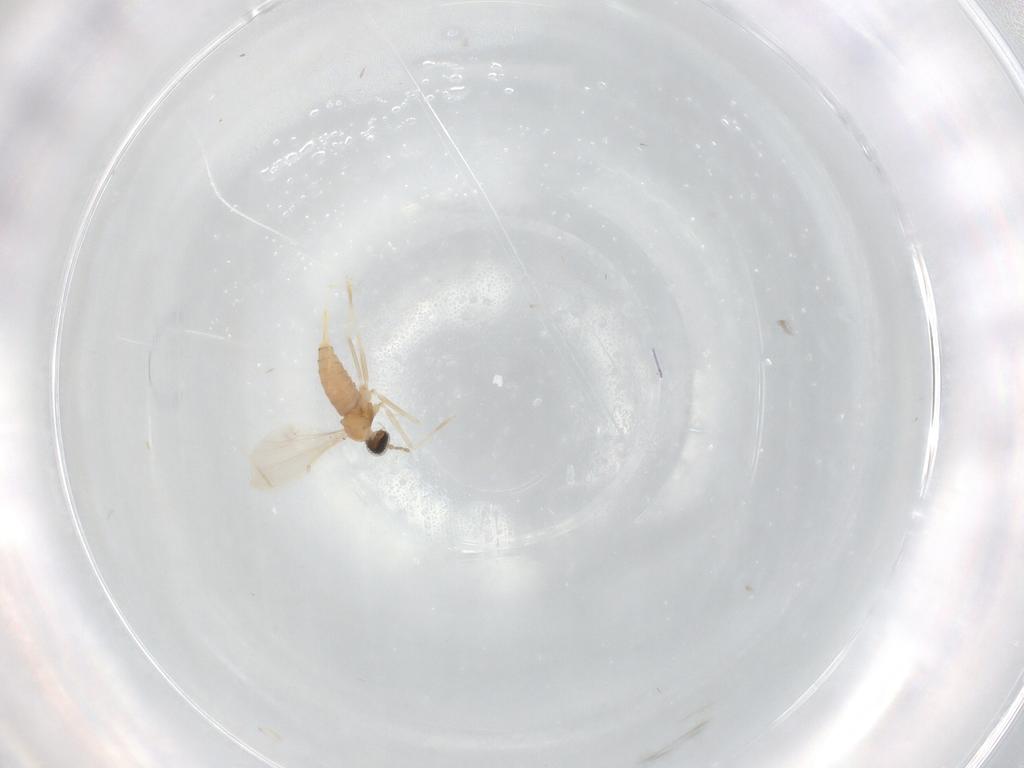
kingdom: Animalia
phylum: Arthropoda
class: Insecta
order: Diptera
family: Cecidomyiidae
